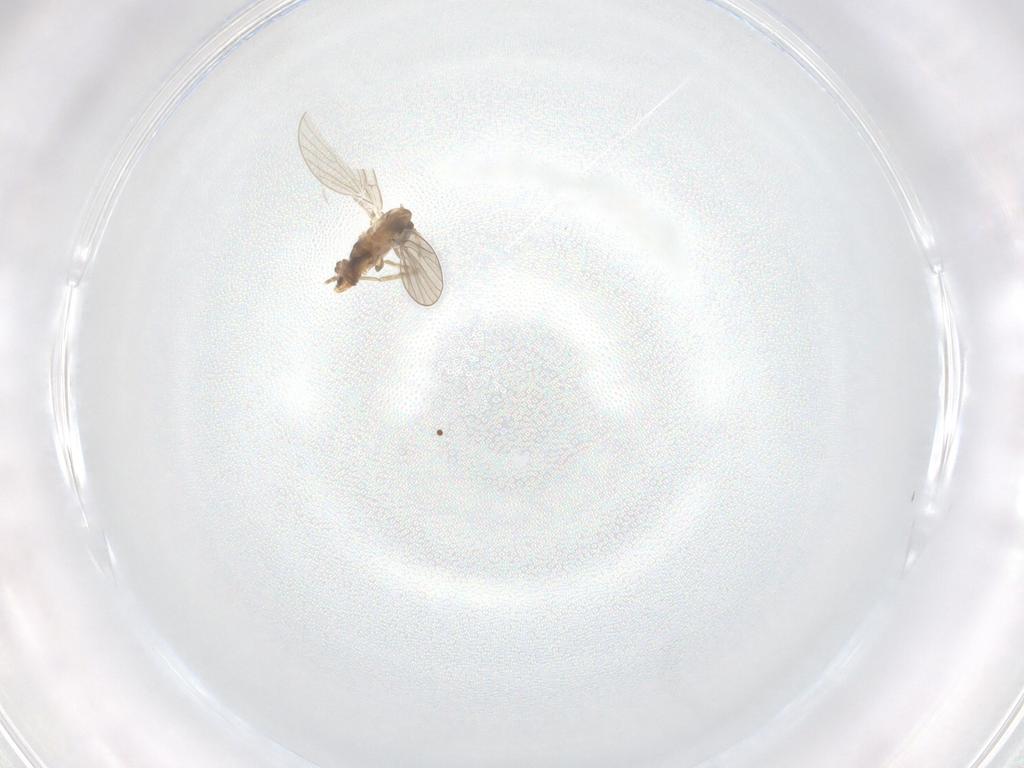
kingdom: Animalia
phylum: Arthropoda
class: Insecta
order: Diptera
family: Psychodidae
